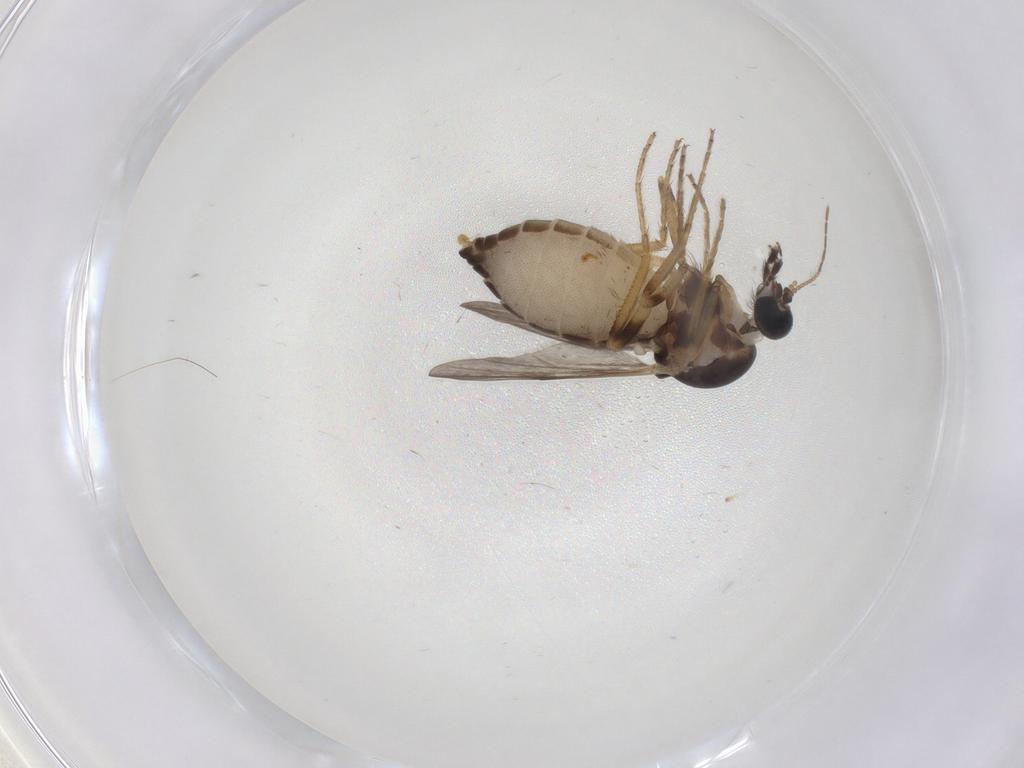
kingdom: Animalia
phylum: Arthropoda
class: Insecta
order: Diptera
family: Ceratopogonidae
